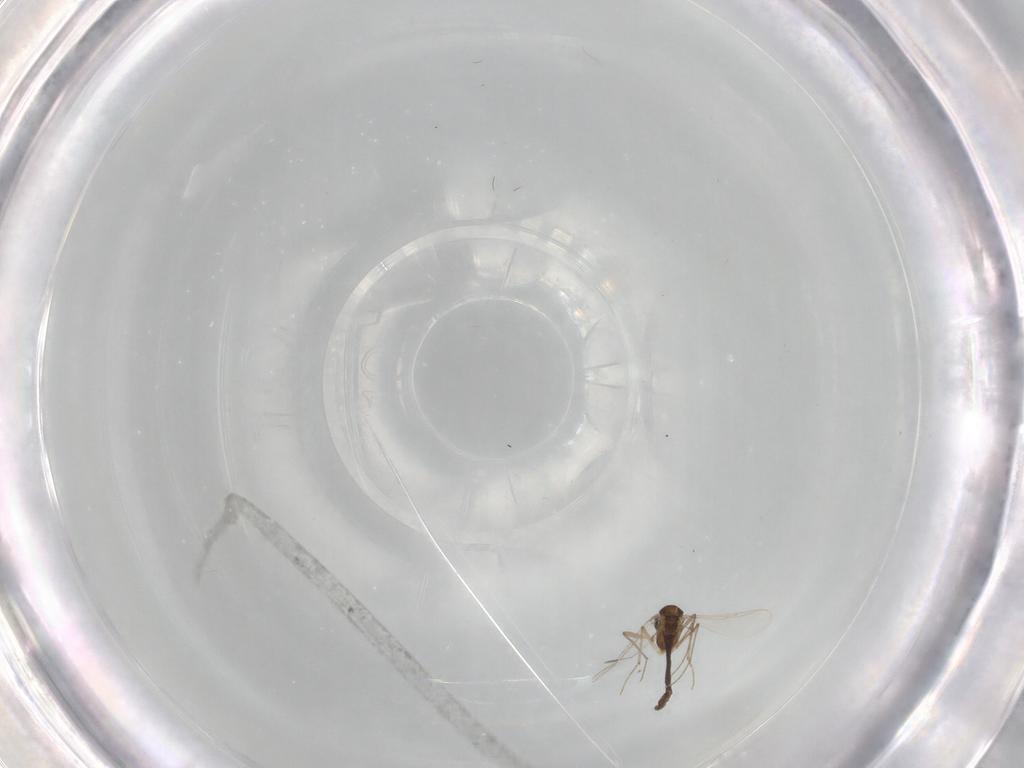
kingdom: Animalia
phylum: Arthropoda
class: Insecta
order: Diptera
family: Chironomidae
